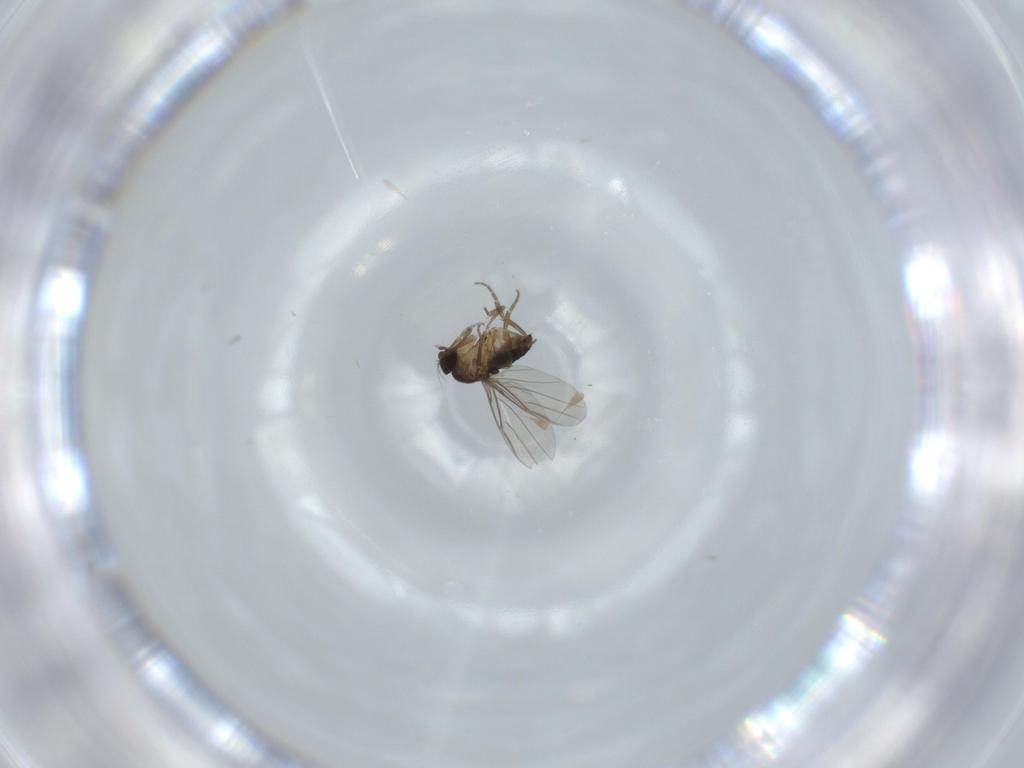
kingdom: Animalia
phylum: Arthropoda
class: Insecta
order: Diptera
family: Phoridae
